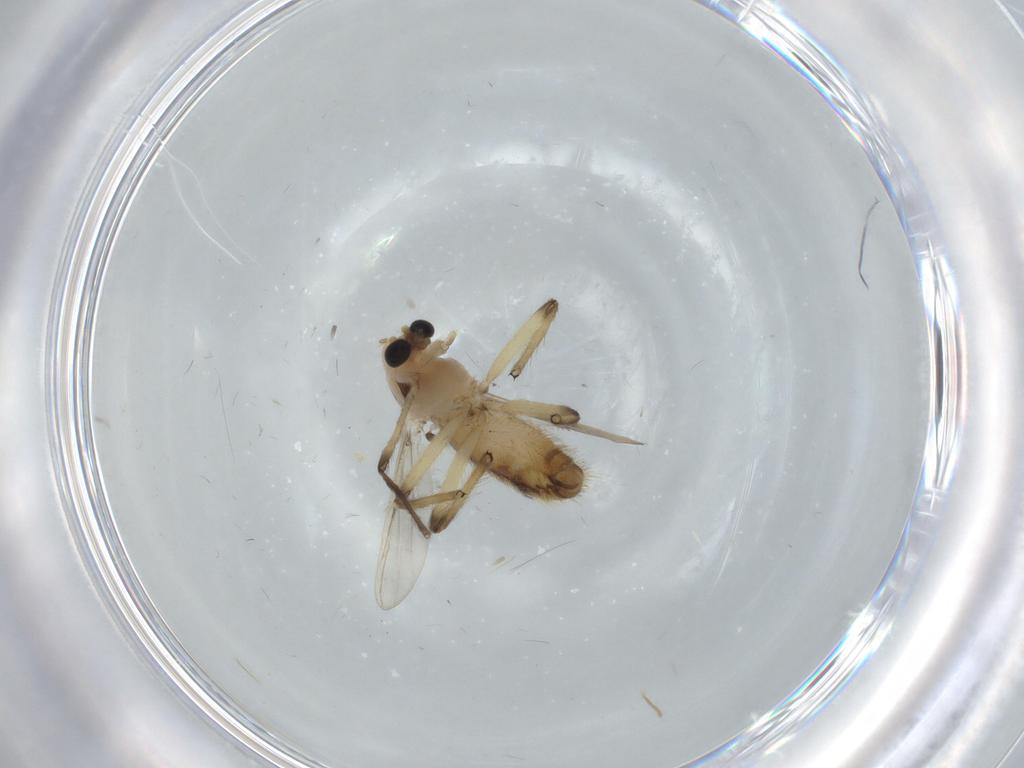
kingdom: Animalia
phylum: Arthropoda
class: Insecta
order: Diptera
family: Chironomidae
